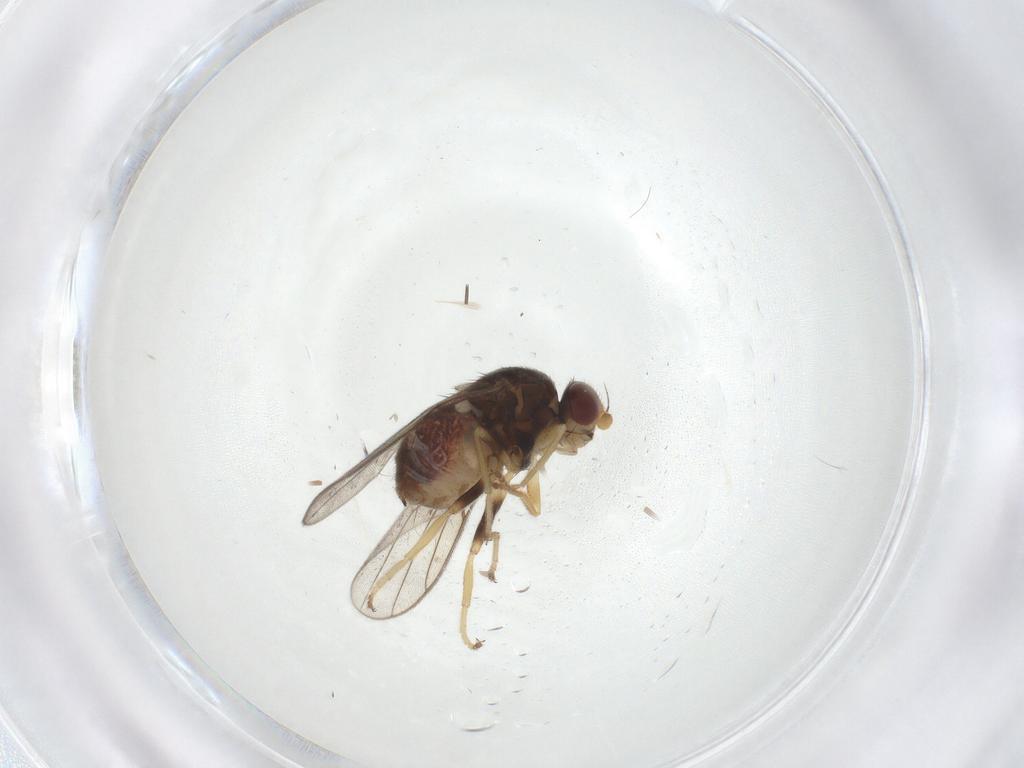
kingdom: Animalia
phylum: Arthropoda
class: Insecta
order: Diptera
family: Chloropidae
